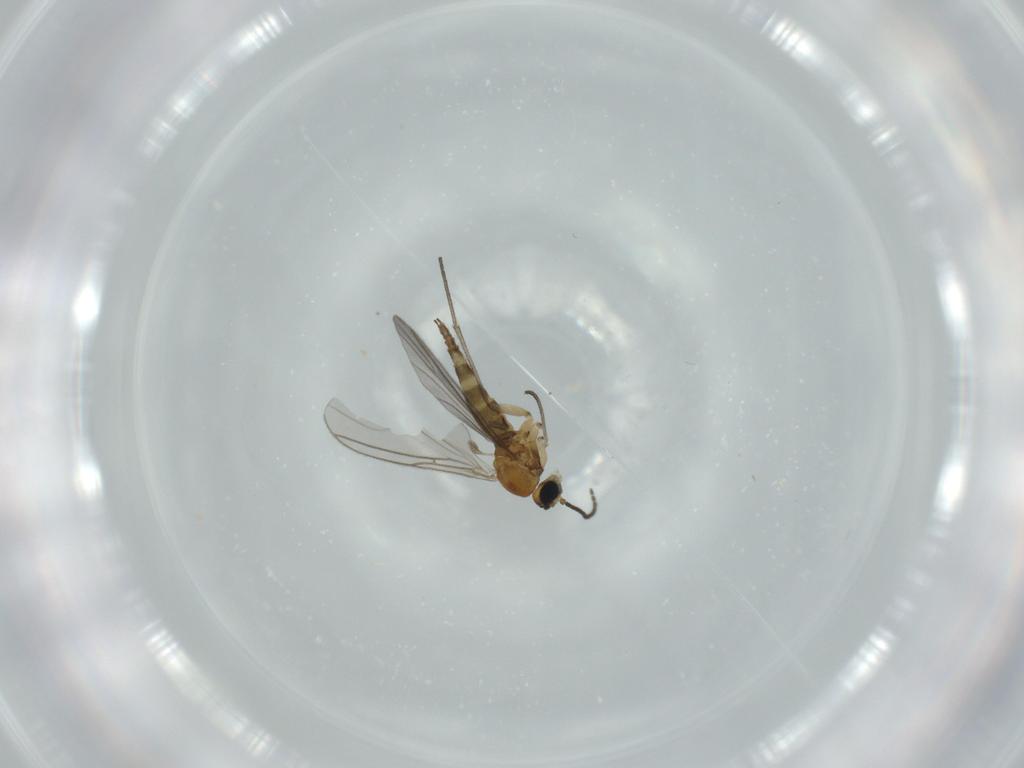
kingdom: Animalia
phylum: Arthropoda
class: Insecta
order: Diptera
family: Sciaridae
